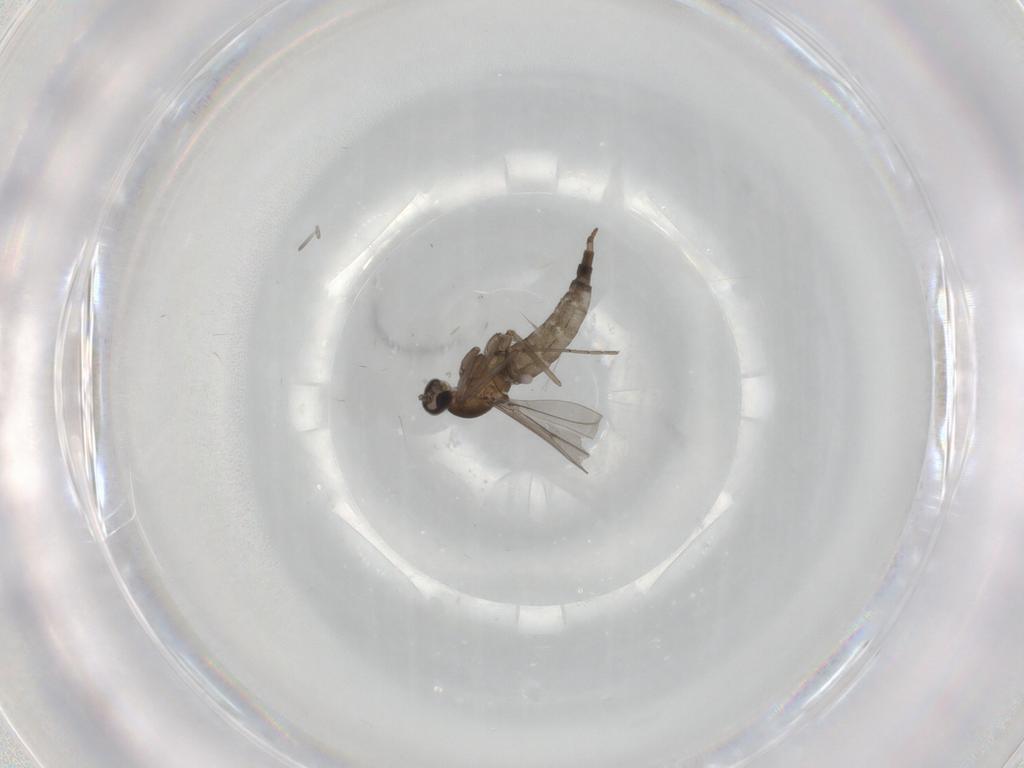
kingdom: Animalia
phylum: Arthropoda
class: Insecta
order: Diptera
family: Cecidomyiidae
